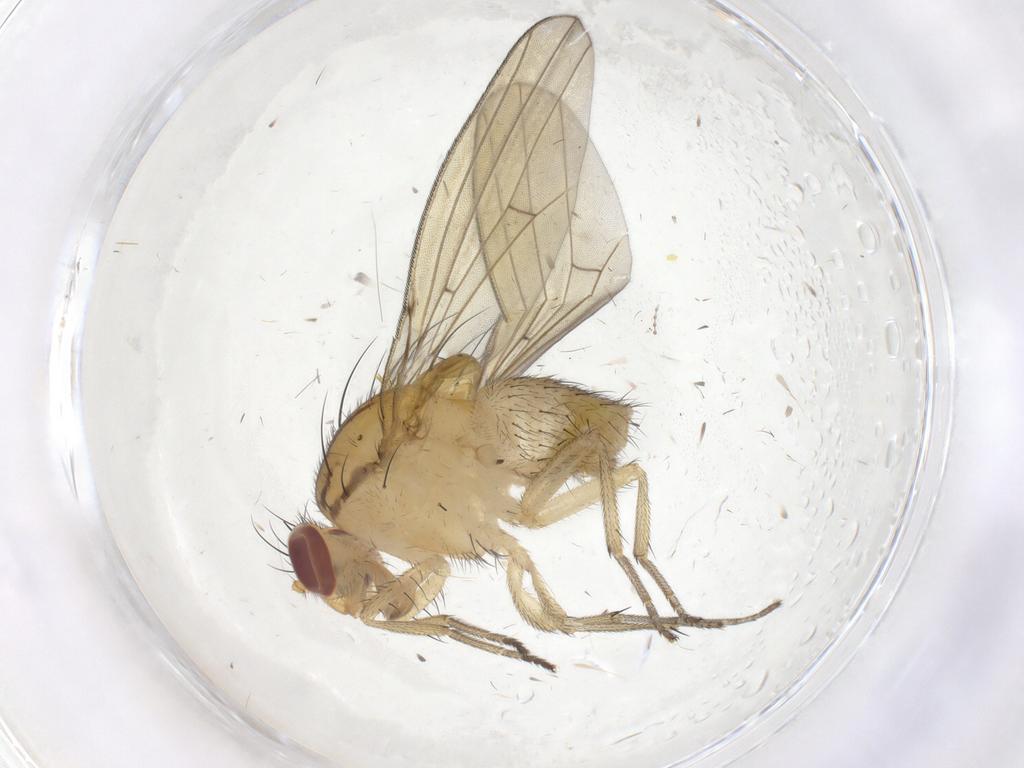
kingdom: Animalia
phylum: Arthropoda
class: Insecta
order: Diptera
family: Lauxaniidae
